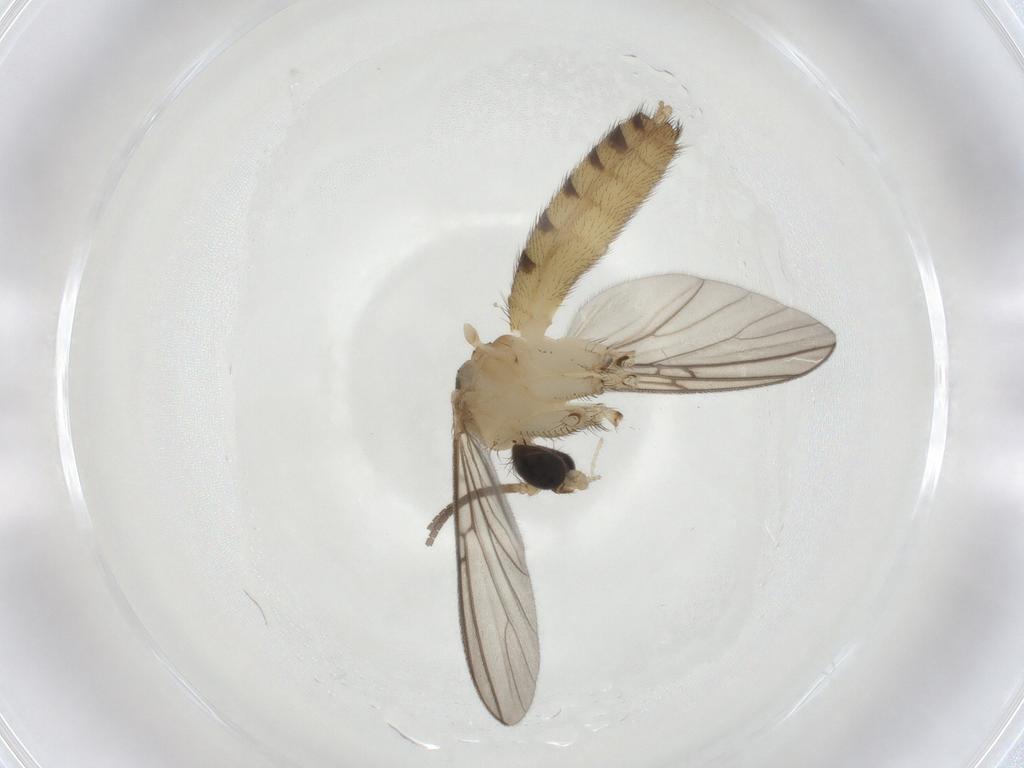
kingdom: Animalia
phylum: Arthropoda
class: Insecta
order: Diptera
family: Mycetophilidae
